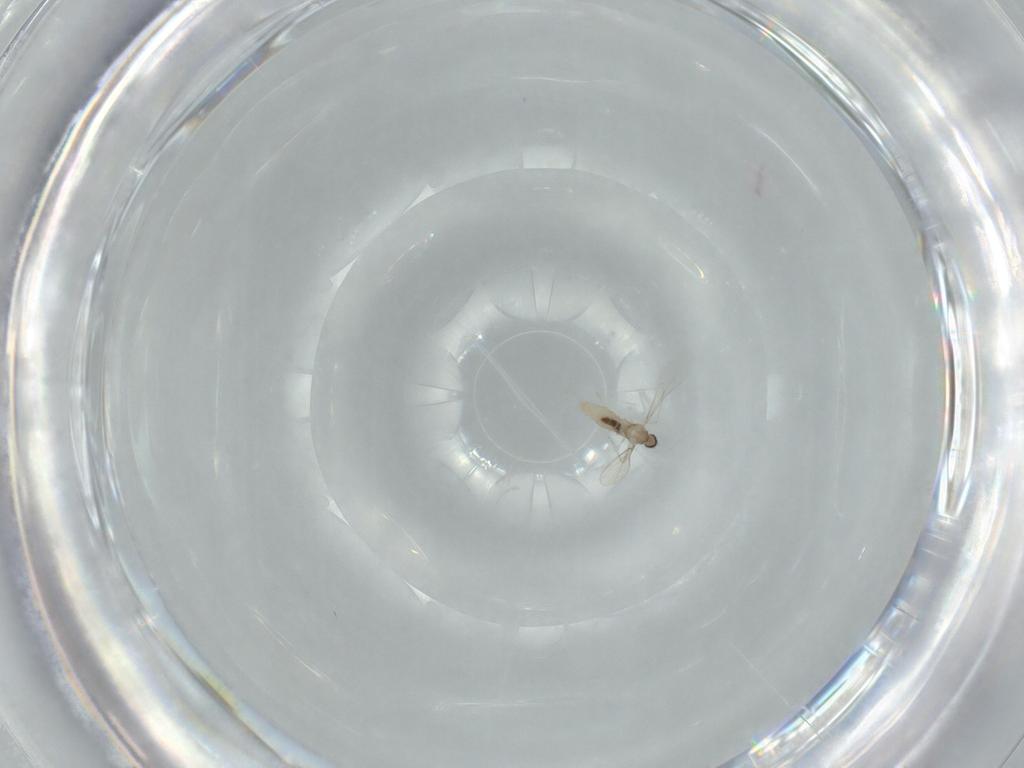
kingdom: Animalia
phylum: Arthropoda
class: Insecta
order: Diptera
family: Cecidomyiidae
